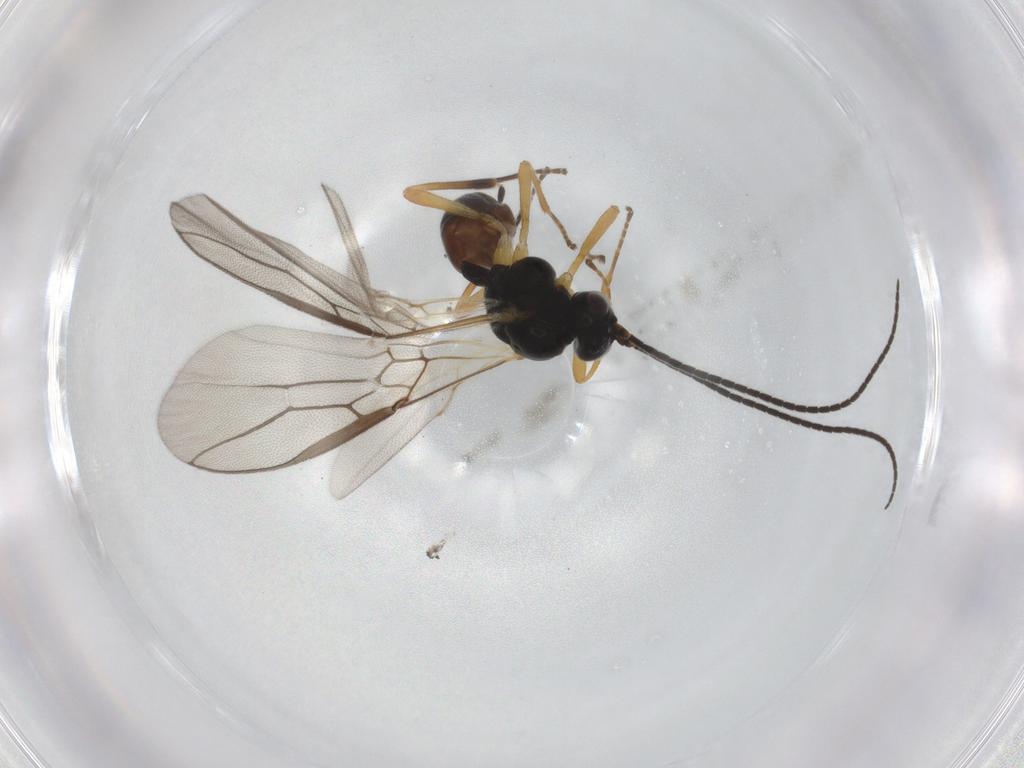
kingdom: Animalia
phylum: Arthropoda
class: Insecta
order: Hymenoptera
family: Braconidae
